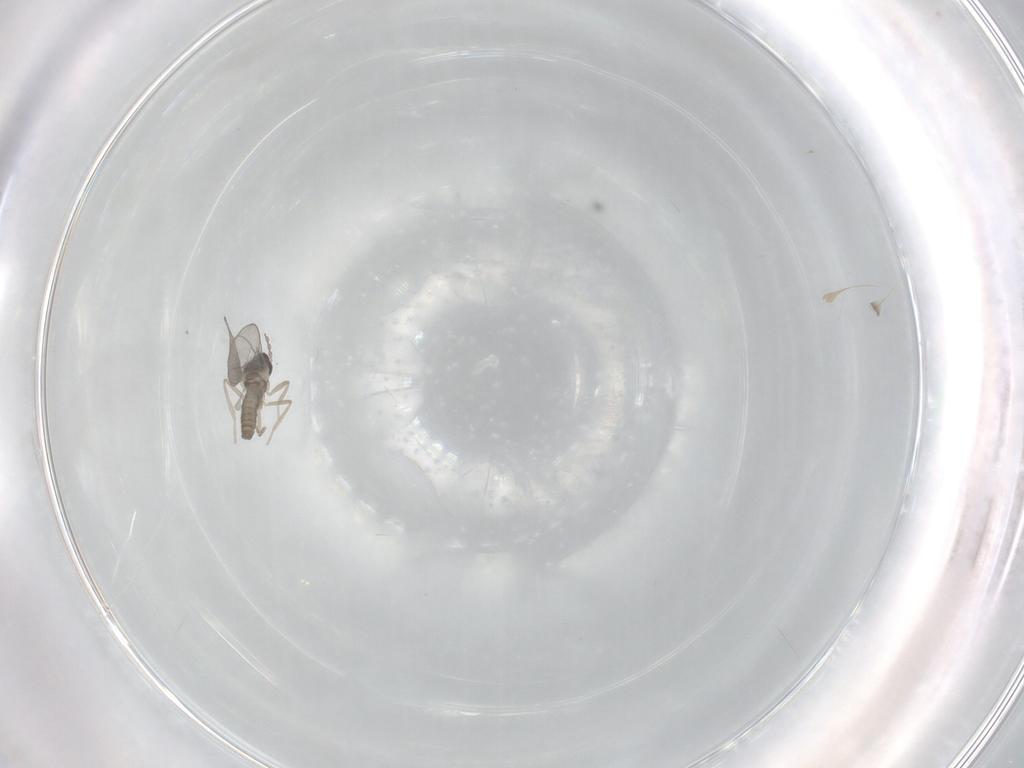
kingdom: Animalia
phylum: Arthropoda
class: Insecta
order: Diptera
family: Cecidomyiidae
